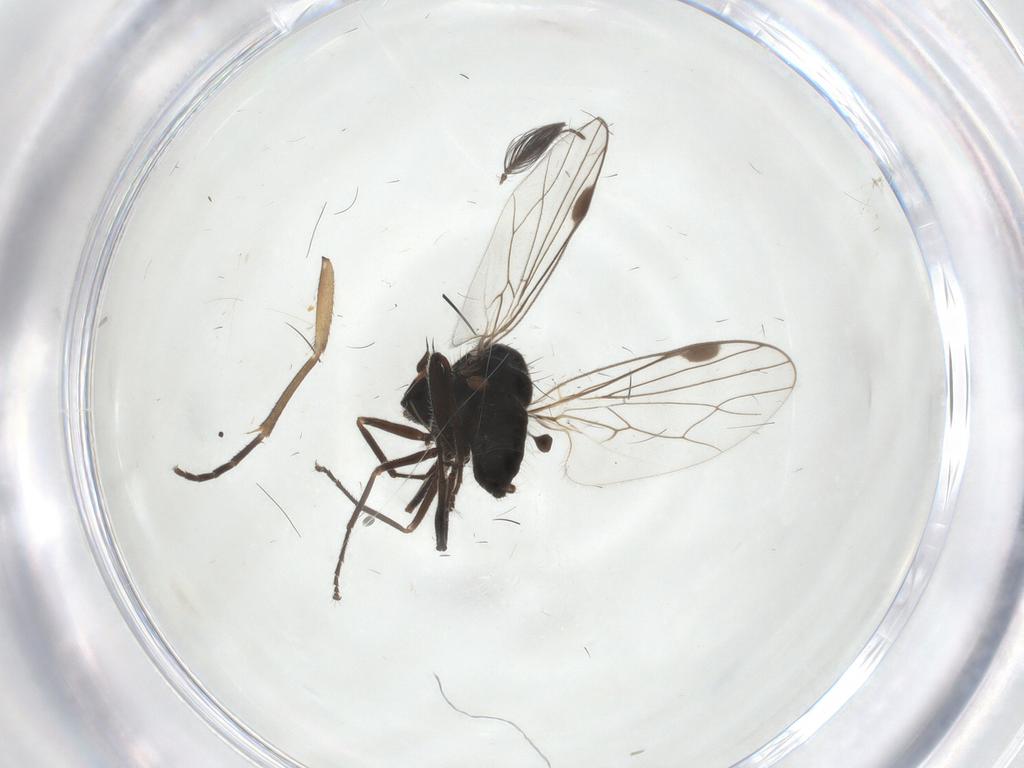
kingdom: Animalia
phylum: Arthropoda
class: Insecta
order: Diptera
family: Muscidae
